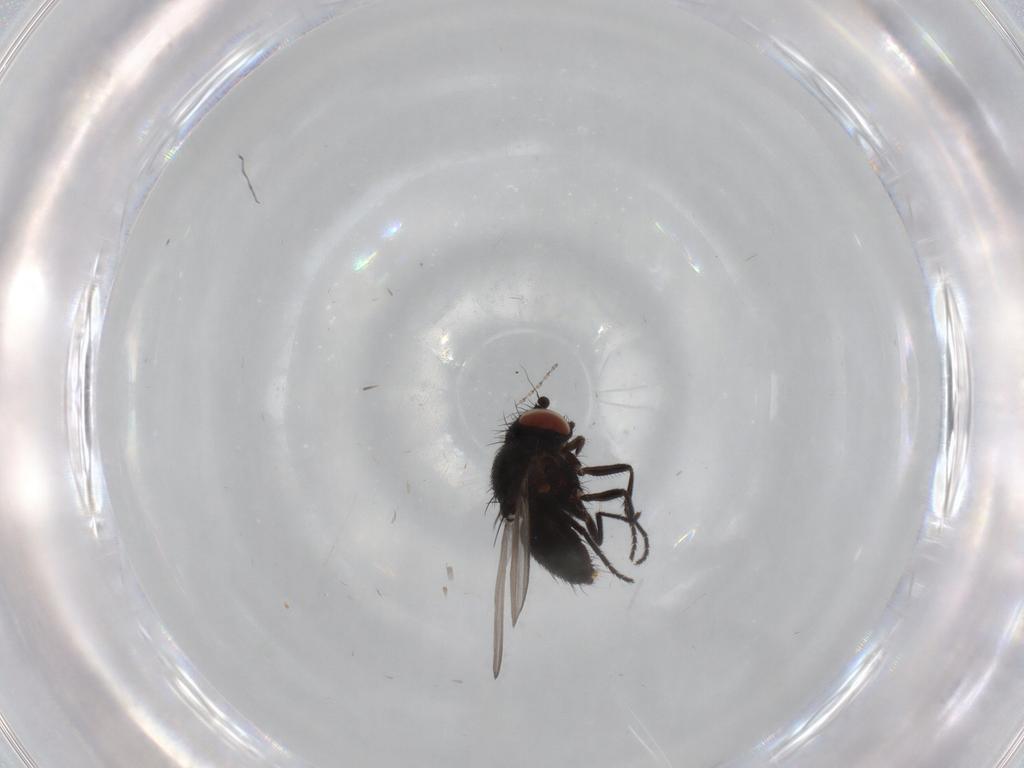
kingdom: Animalia
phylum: Arthropoda
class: Insecta
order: Diptera
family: Milichiidae
